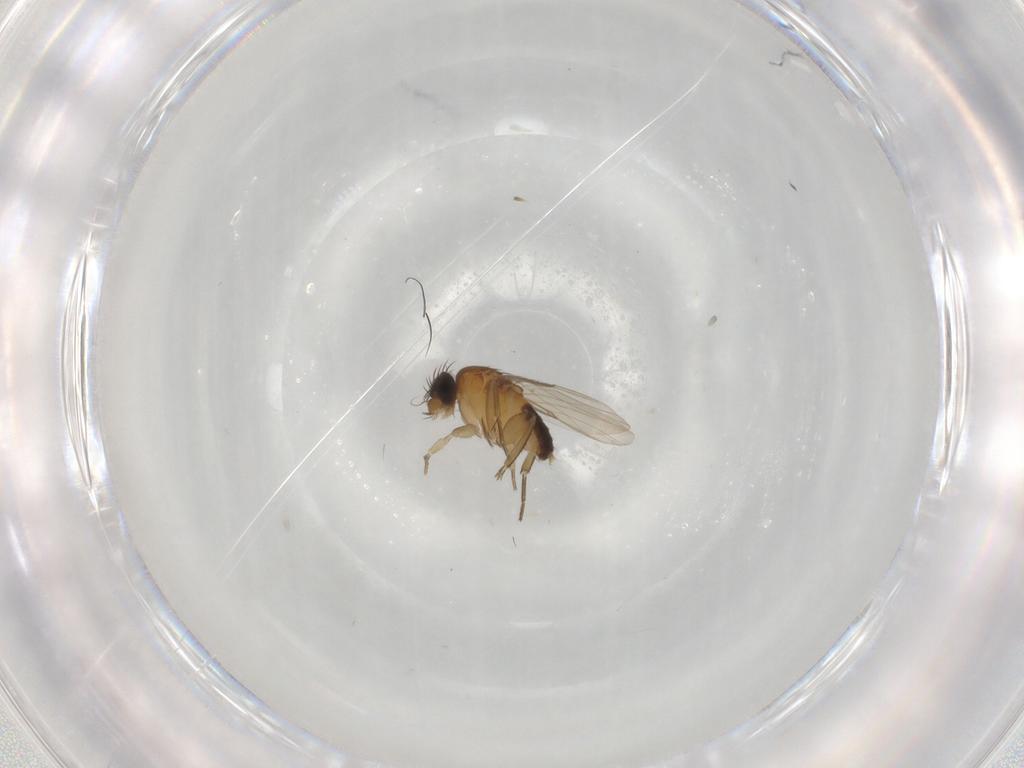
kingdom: Animalia
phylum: Arthropoda
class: Insecta
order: Diptera
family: Phoridae
